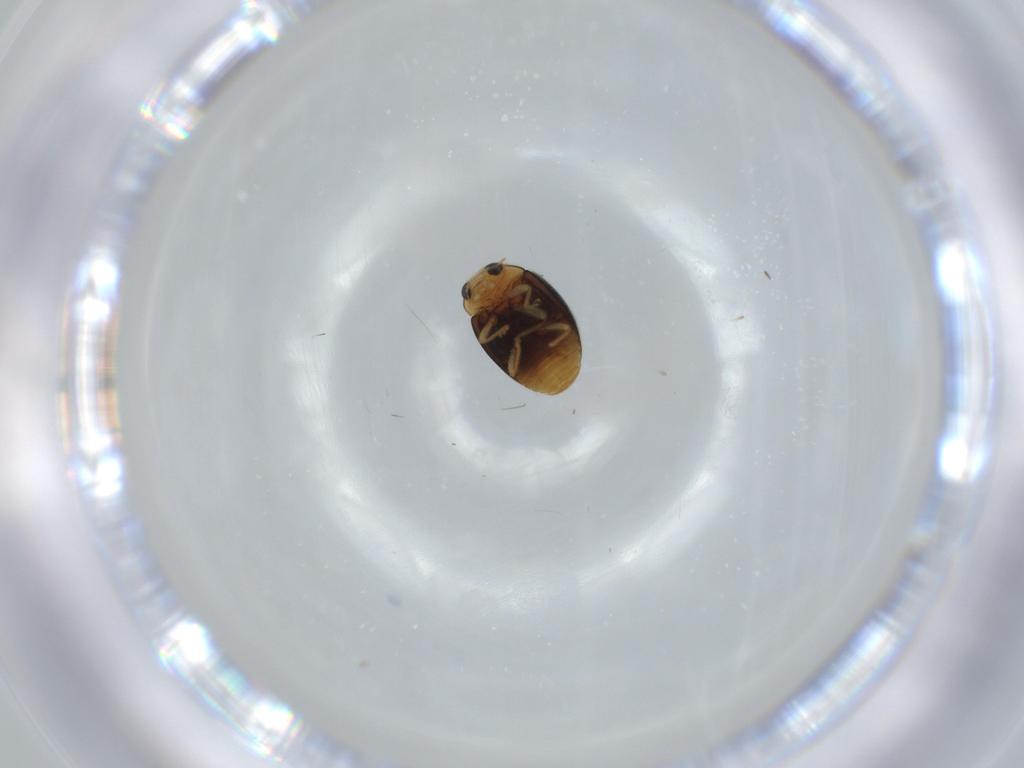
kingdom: Animalia
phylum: Arthropoda
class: Insecta
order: Coleoptera
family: Coccinellidae
